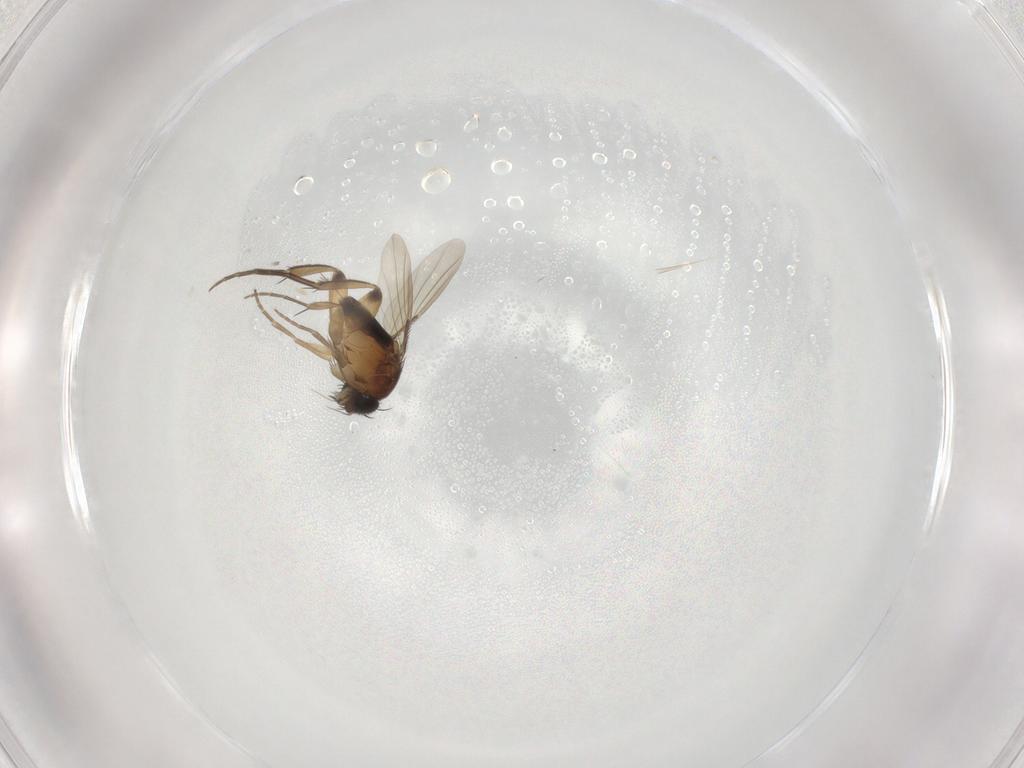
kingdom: Animalia
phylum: Arthropoda
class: Insecta
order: Diptera
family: Phoridae
